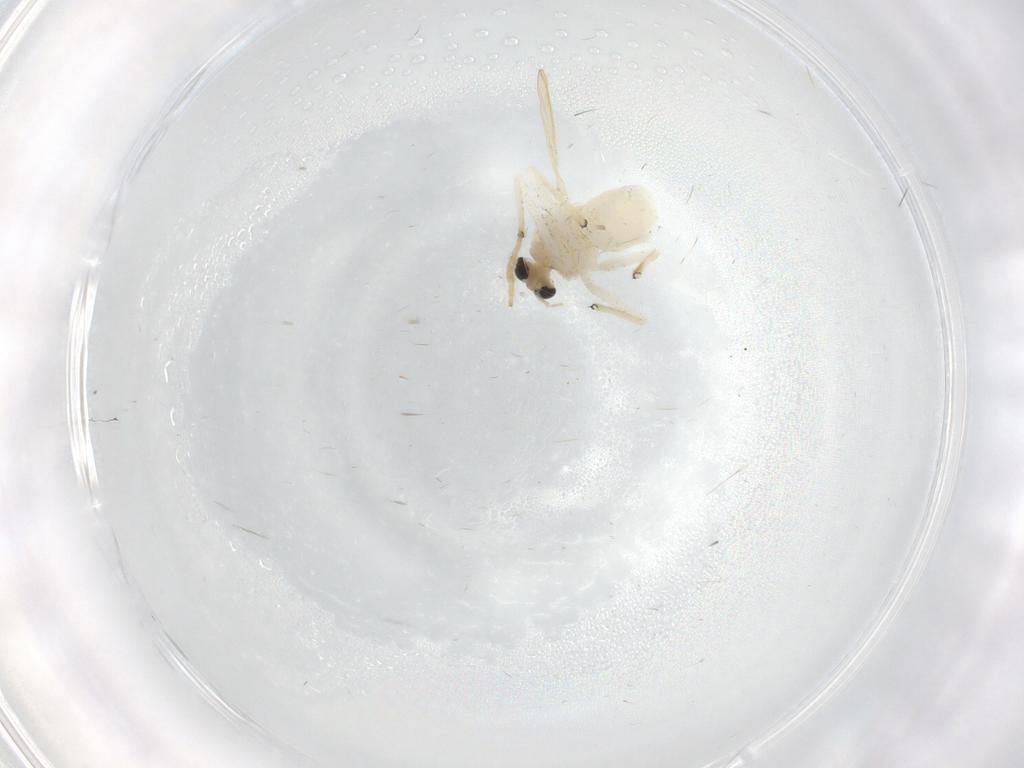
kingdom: Animalia
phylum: Arthropoda
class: Insecta
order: Diptera
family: Chironomidae
